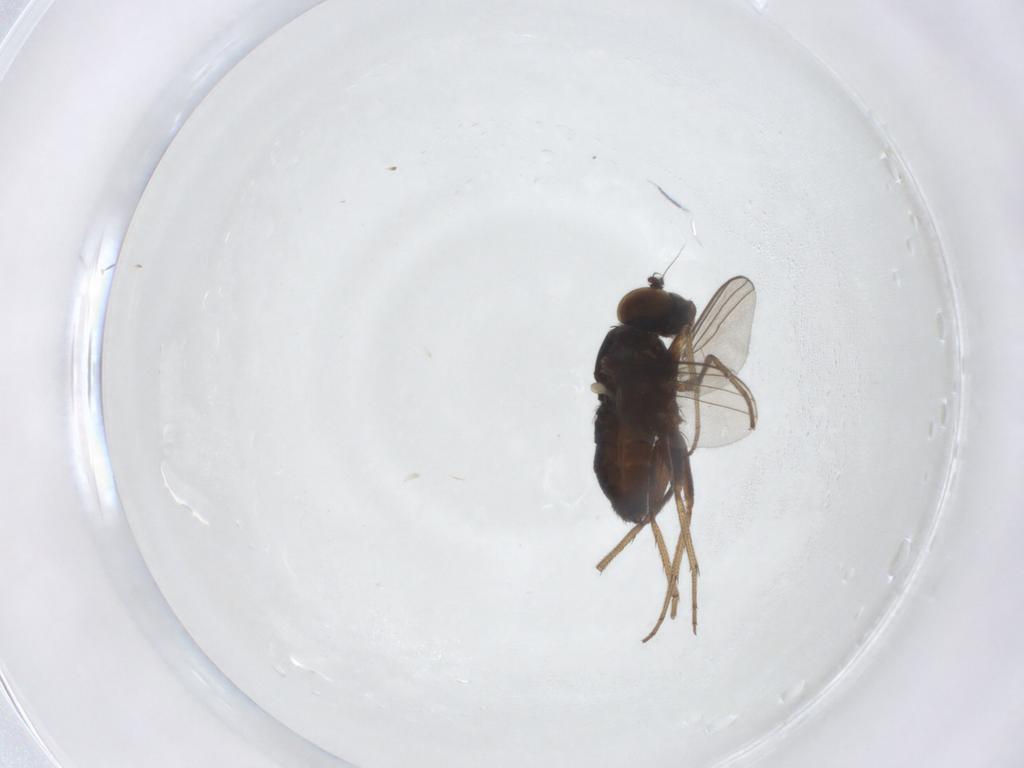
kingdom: Animalia
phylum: Arthropoda
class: Insecta
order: Diptera
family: Dolichopodidae
